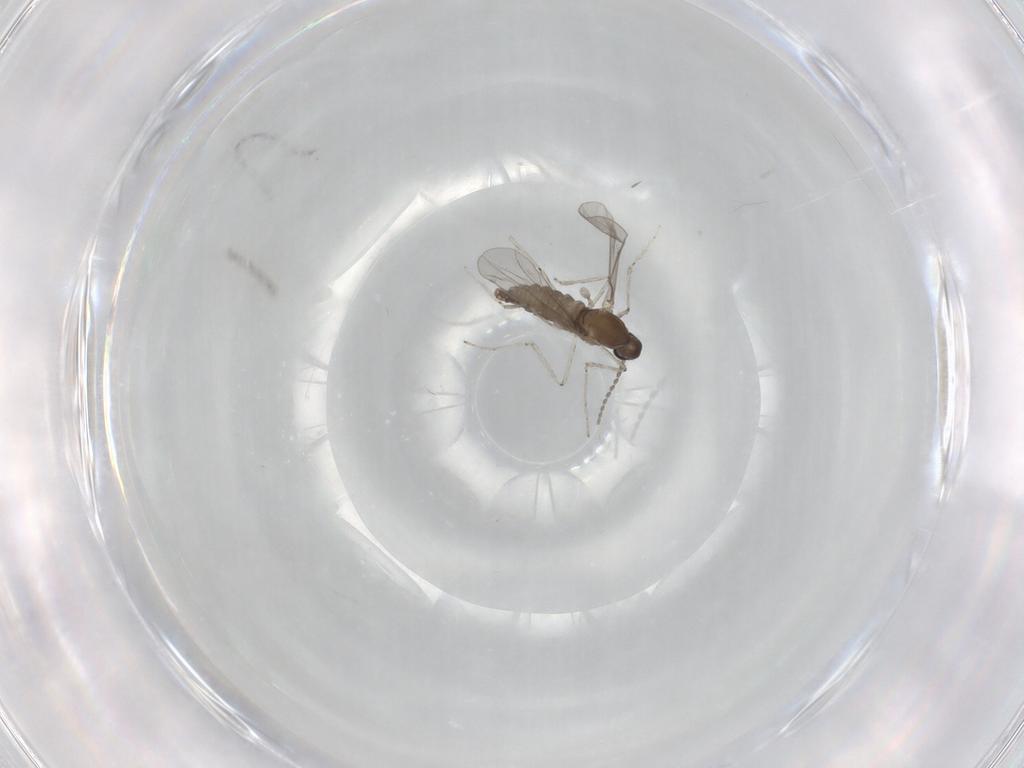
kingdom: Animalia
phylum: Arthropoda
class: Insecta
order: Diptera
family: Cecidomyiidae
